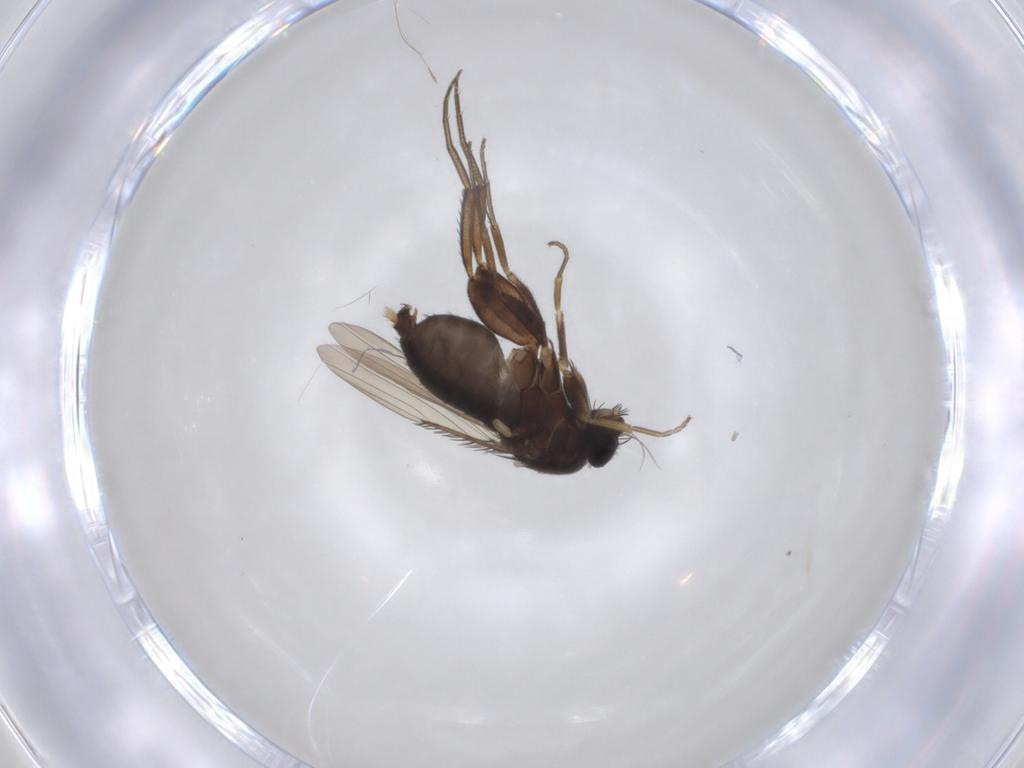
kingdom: Animalia
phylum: Arthropoda
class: Insecta
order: Diptera
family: Phoridae
